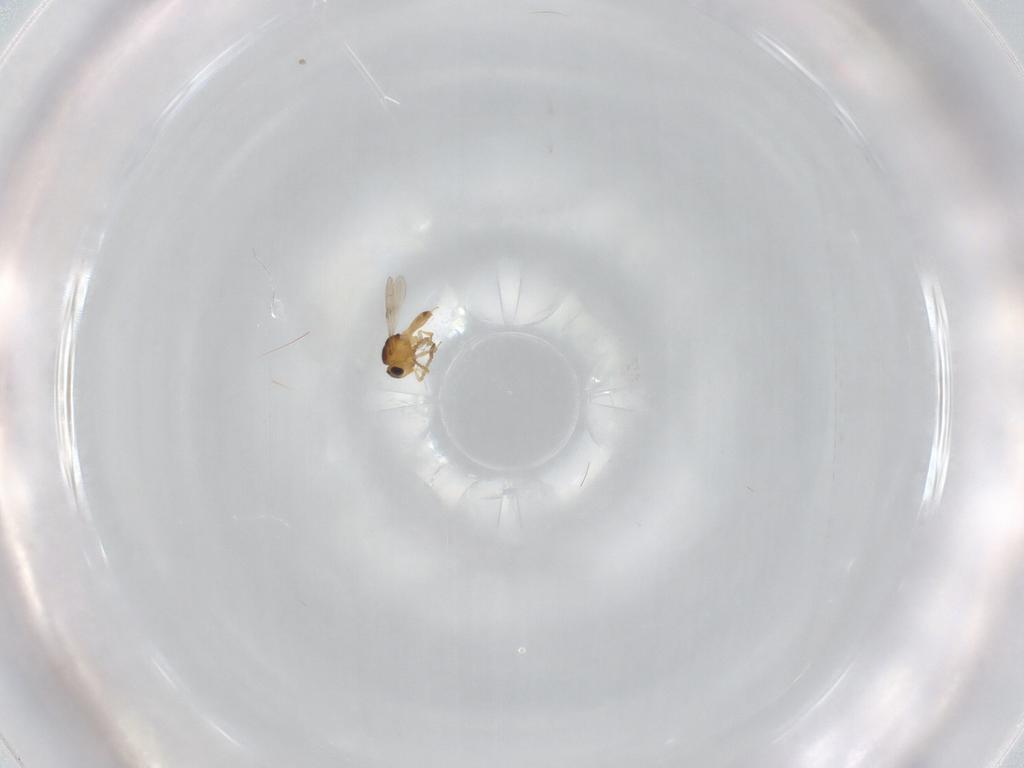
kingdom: Animalia
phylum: Arthropoda
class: Insecta
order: Hymenoptera
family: Scelionidae
